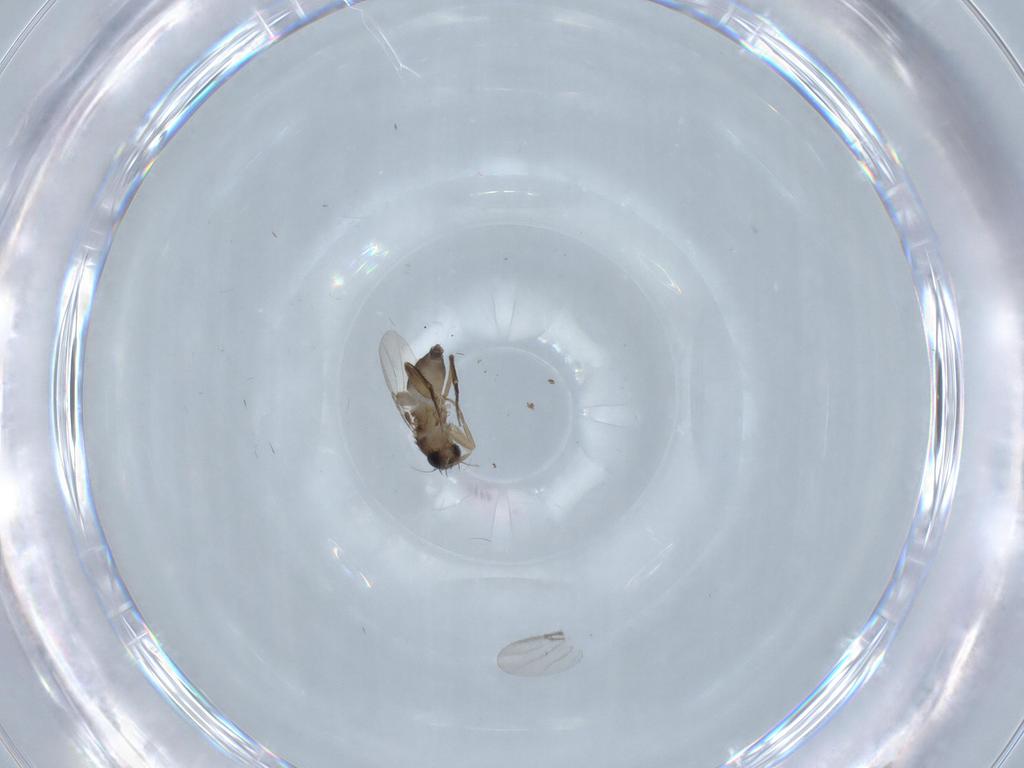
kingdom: Animalia
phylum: Arthropoda
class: Insecta
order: Diptera
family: Phoridae
